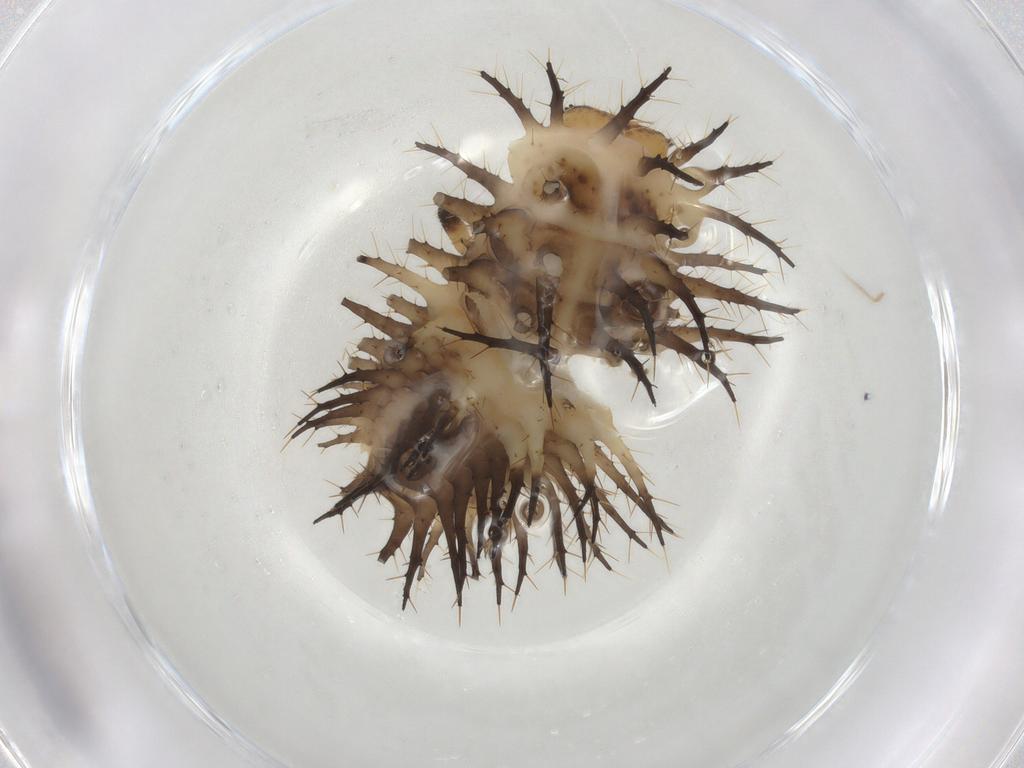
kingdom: Animalia
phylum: Arthropoda
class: Insecta
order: Coleoptera
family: Coccinellidae
